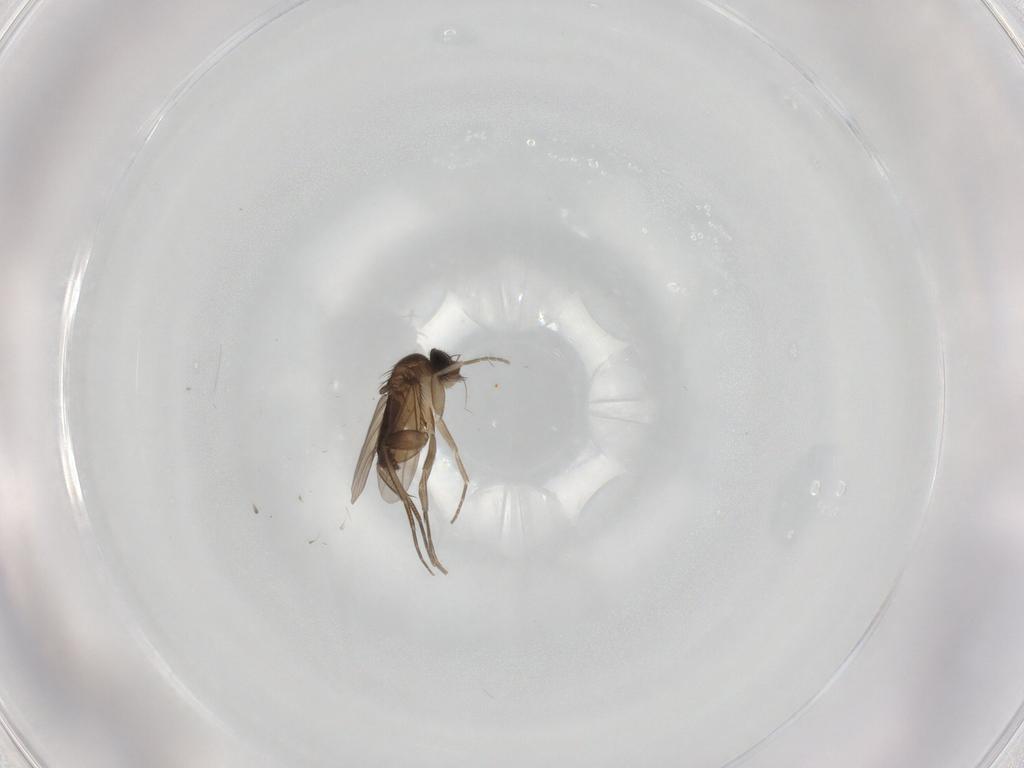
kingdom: Animalia
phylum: Arthropoda
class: Insecta
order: Diptera
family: Phoridae
